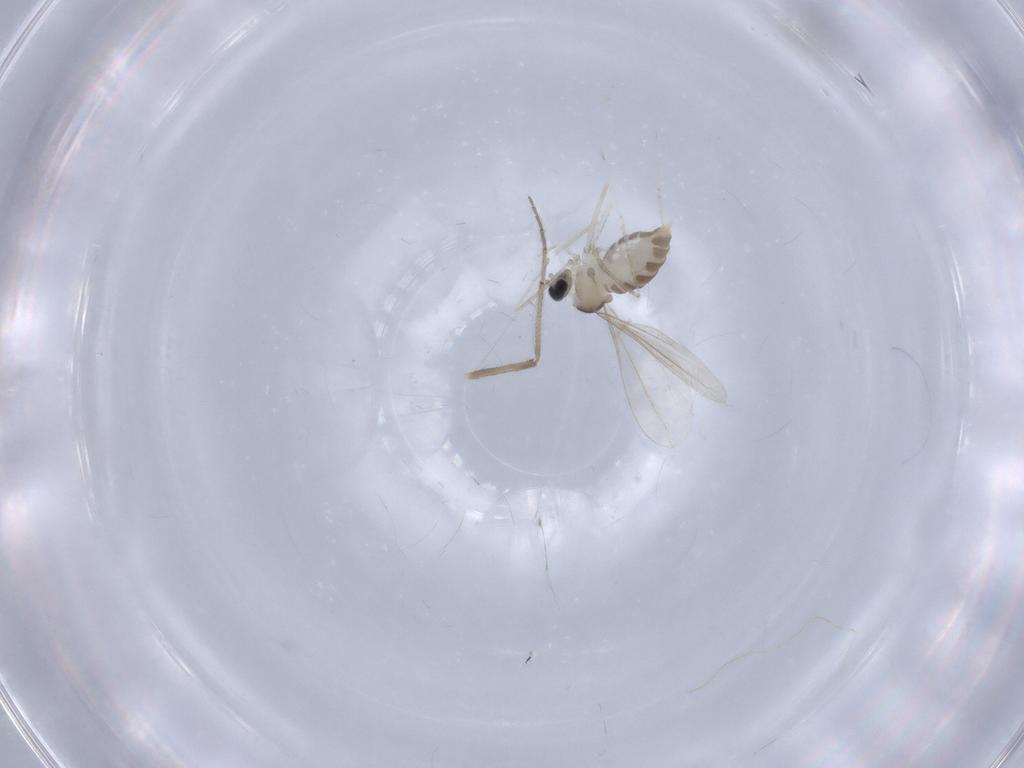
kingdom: Animalia
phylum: Arthropoda
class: Insecta
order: Diptera
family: Cecidomyiidae
